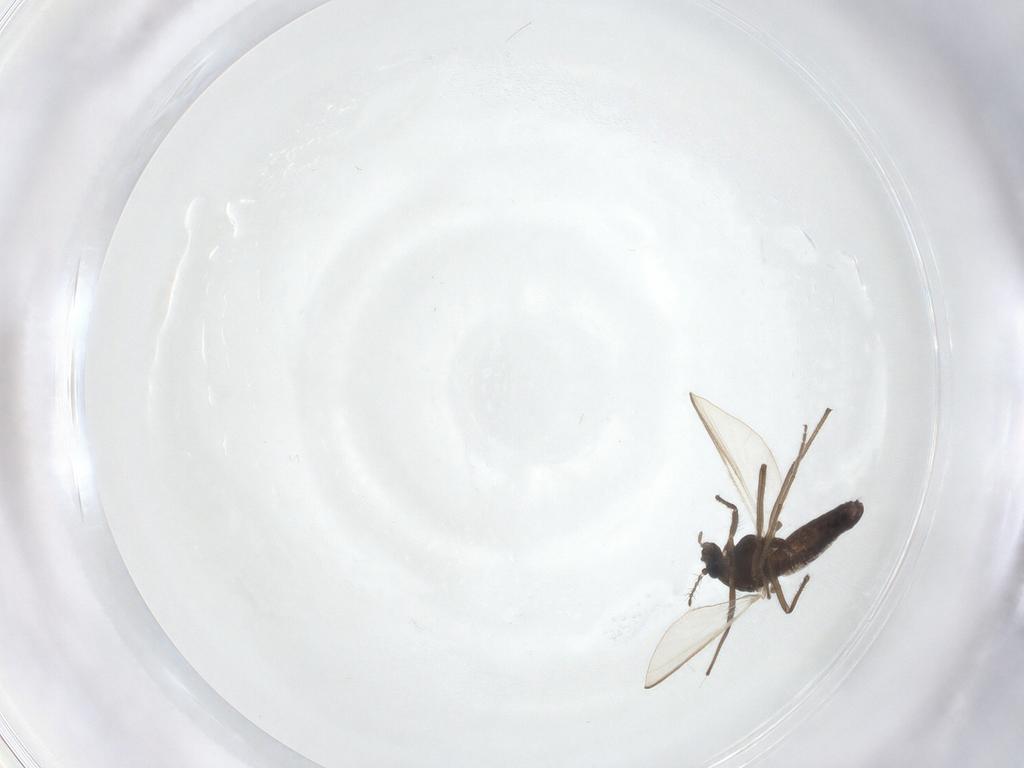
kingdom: Animalia
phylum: Arthropoda
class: Insecta
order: Diptera
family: Chironomidae
